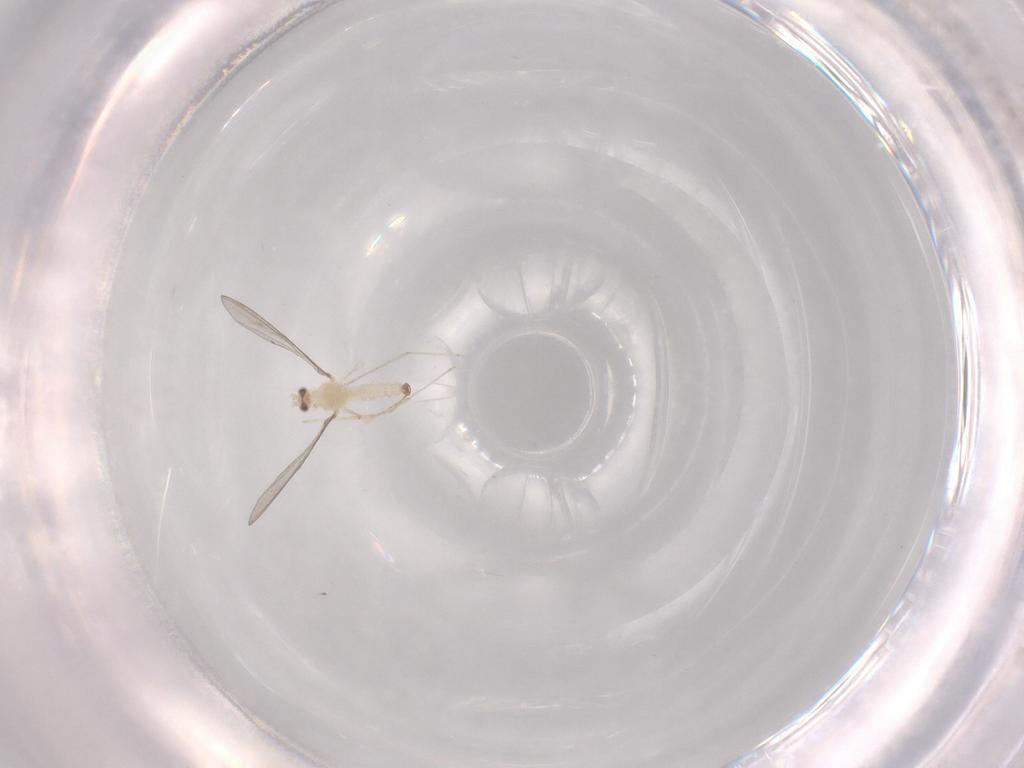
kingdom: Animalia
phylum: Arthropoda
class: Insecta
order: Diptera
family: Cecidomyiidae
